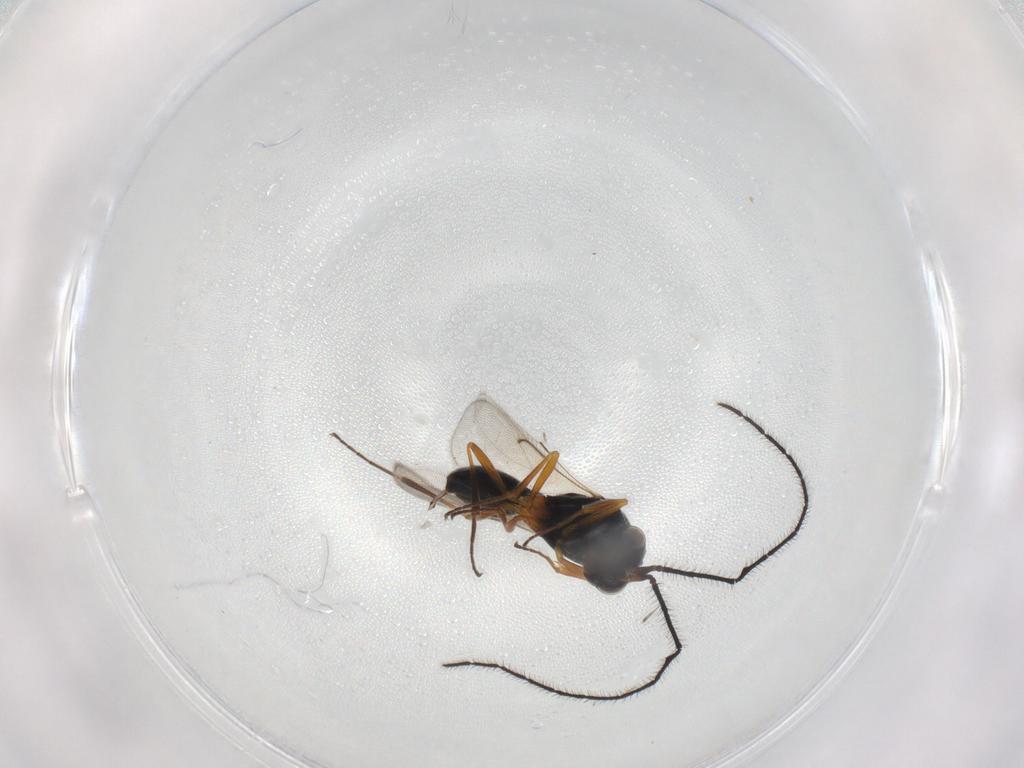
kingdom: Animalia
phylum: Arthropoda
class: Insecta
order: Hymenoptera
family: Scelionidae
